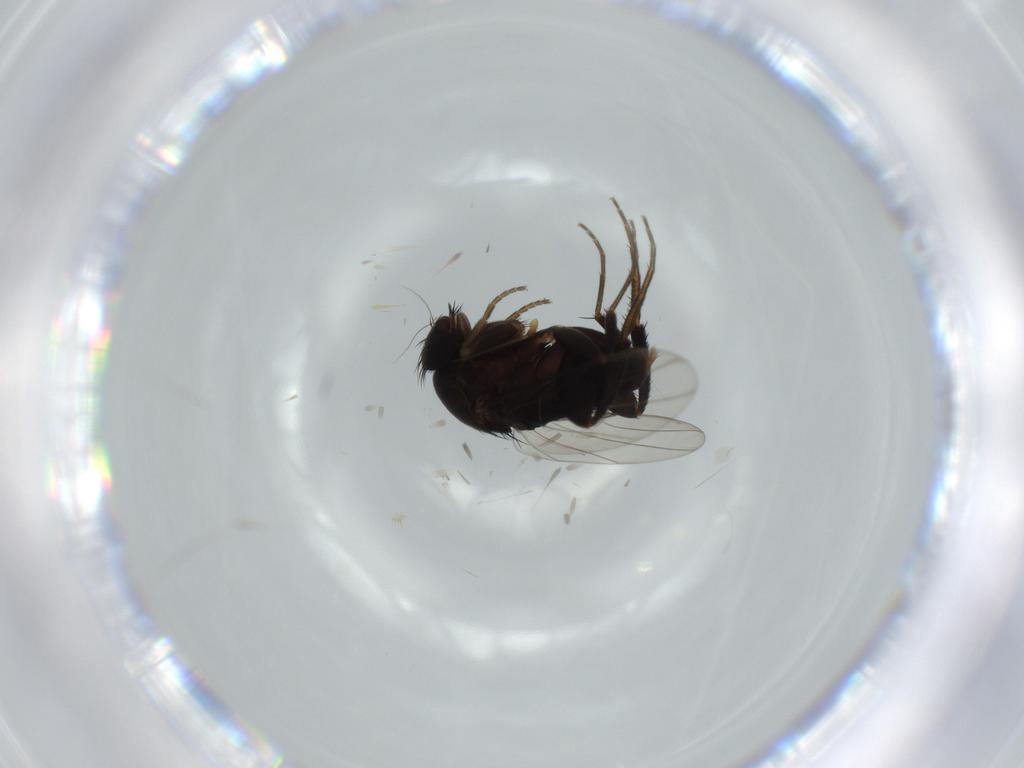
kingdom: Animalia
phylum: Arthropoda
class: Insecta
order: Diptera
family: Phoridae
